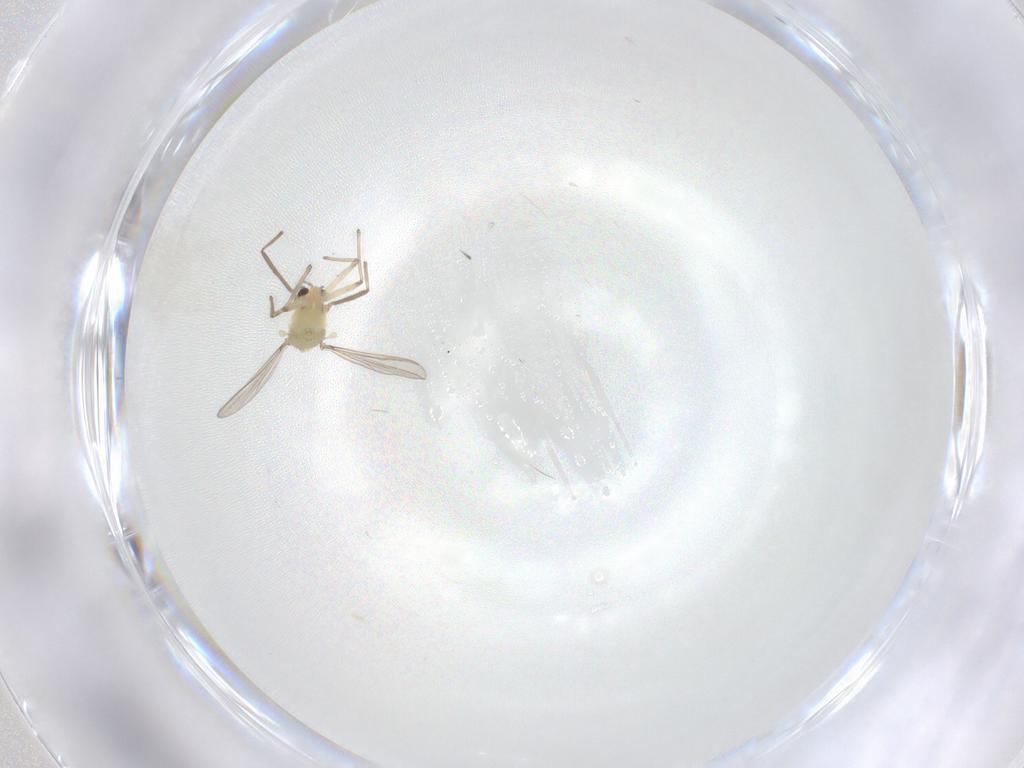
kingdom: Animalia
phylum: Arthropoda
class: Insecta
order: Diptera
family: Chironomidae
